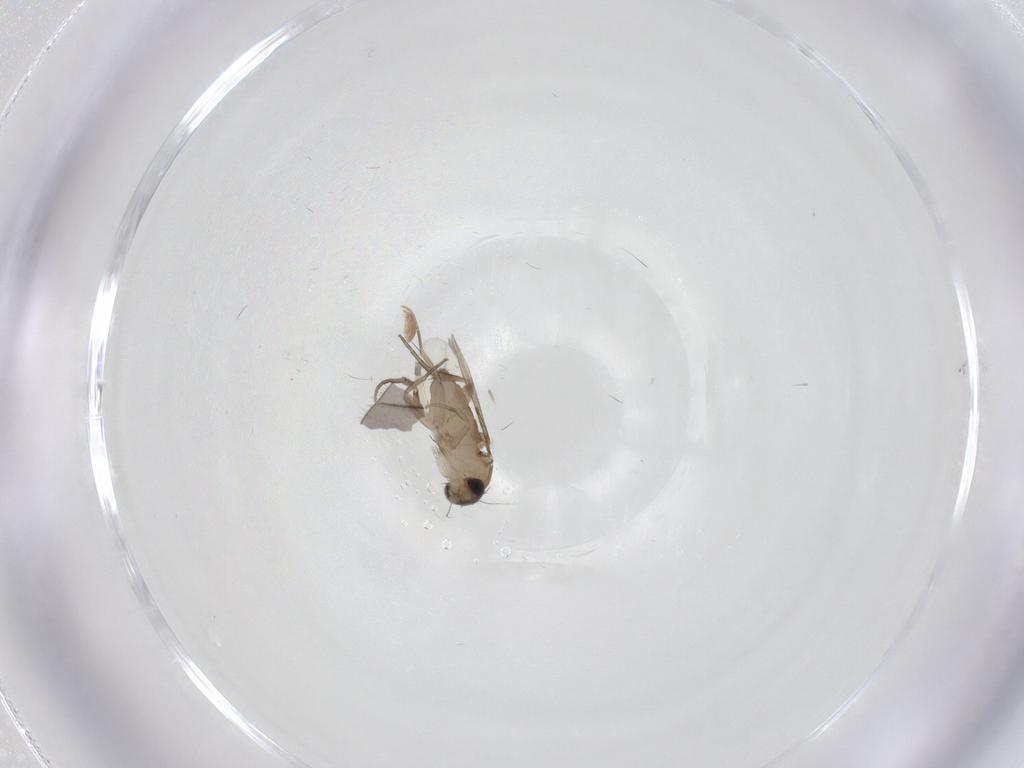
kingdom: Animalia
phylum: Arthropoda
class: Insecta
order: Diptera
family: Phoridae
